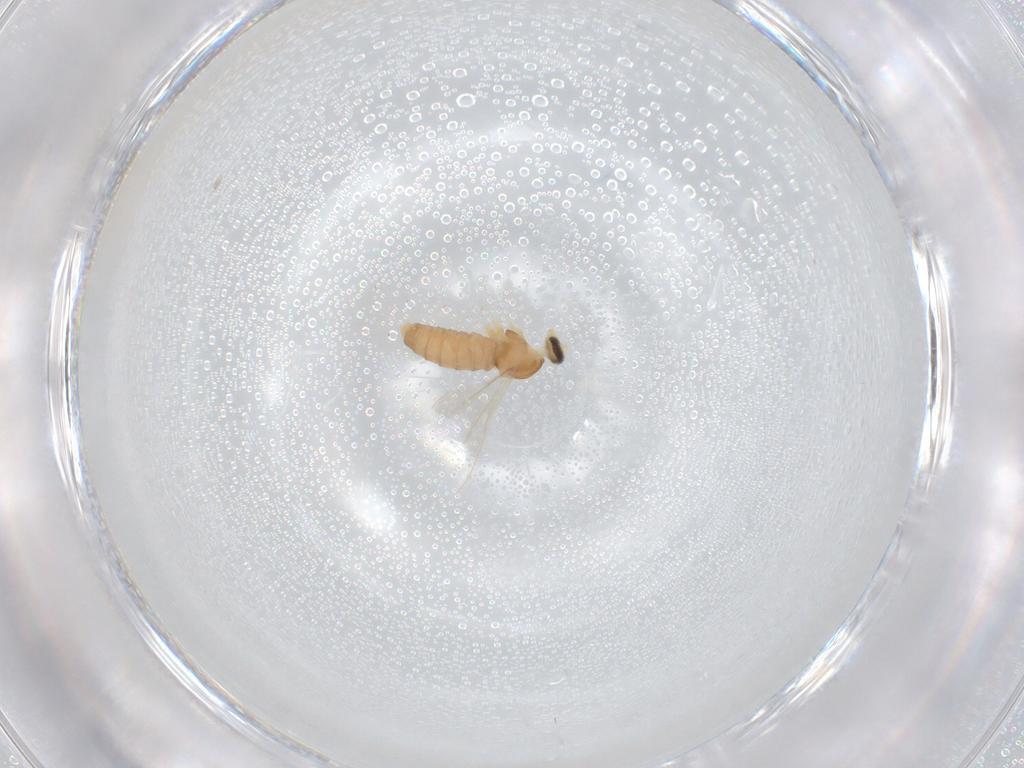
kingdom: Animalia
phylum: Arthropoda
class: Insecta
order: Diptera
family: Cecidomyiidae
